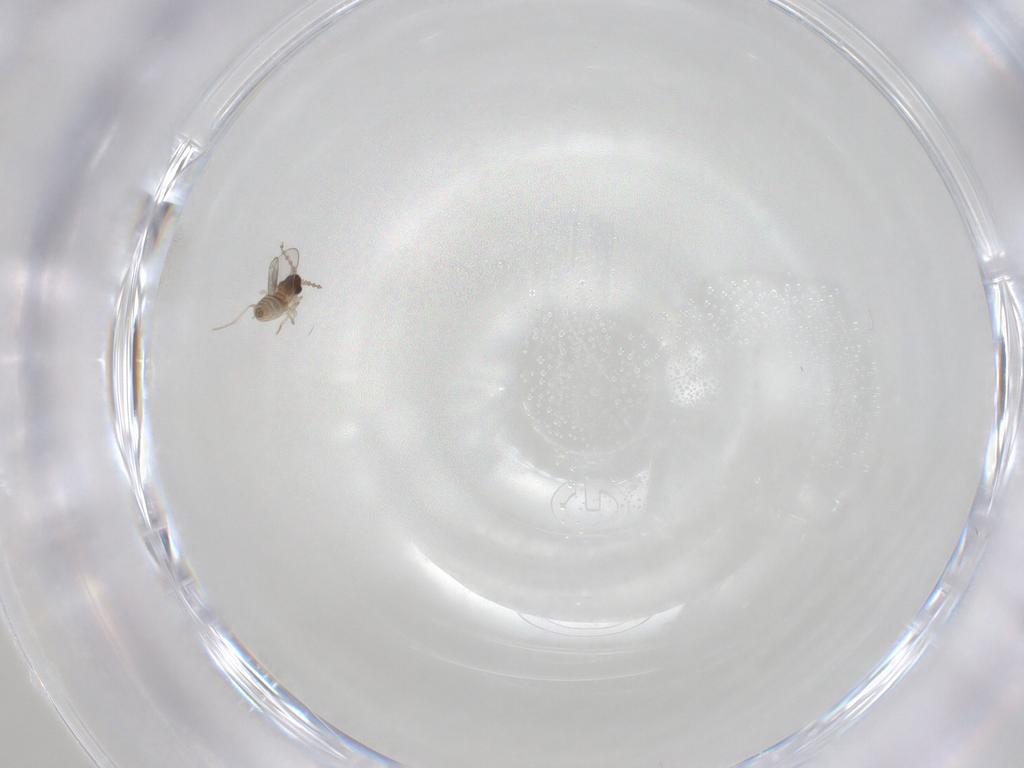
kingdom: Animalia
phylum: Arthropoda
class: Insecta
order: Diptera
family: Cecidomyiidae
